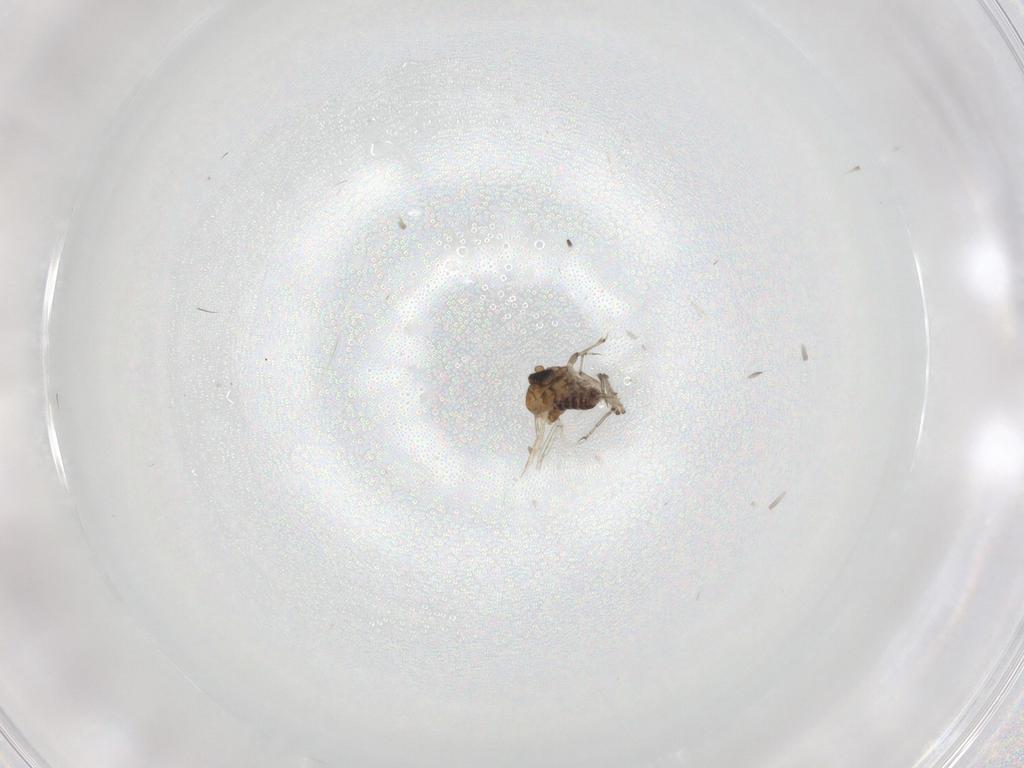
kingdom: Animalia
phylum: Arthropoda
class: Insecta
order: Diptera
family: Ceratopogonidae
